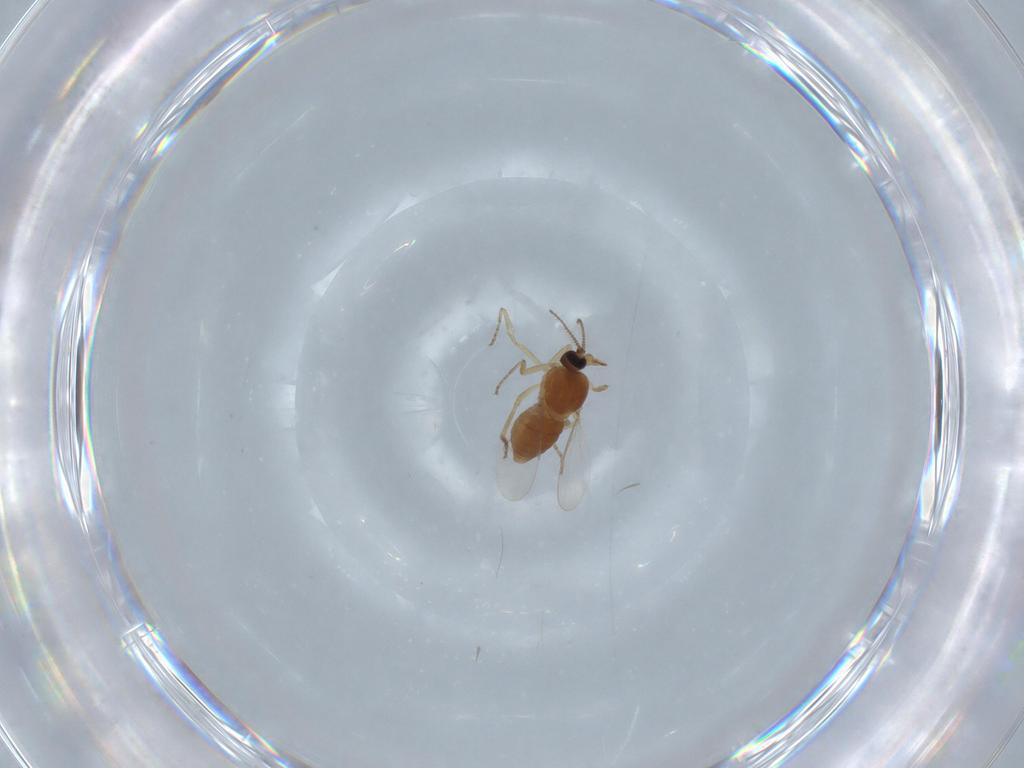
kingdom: Animalia
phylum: Arthropoda
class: Insecta
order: Diptera
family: Ceratopogonidae
